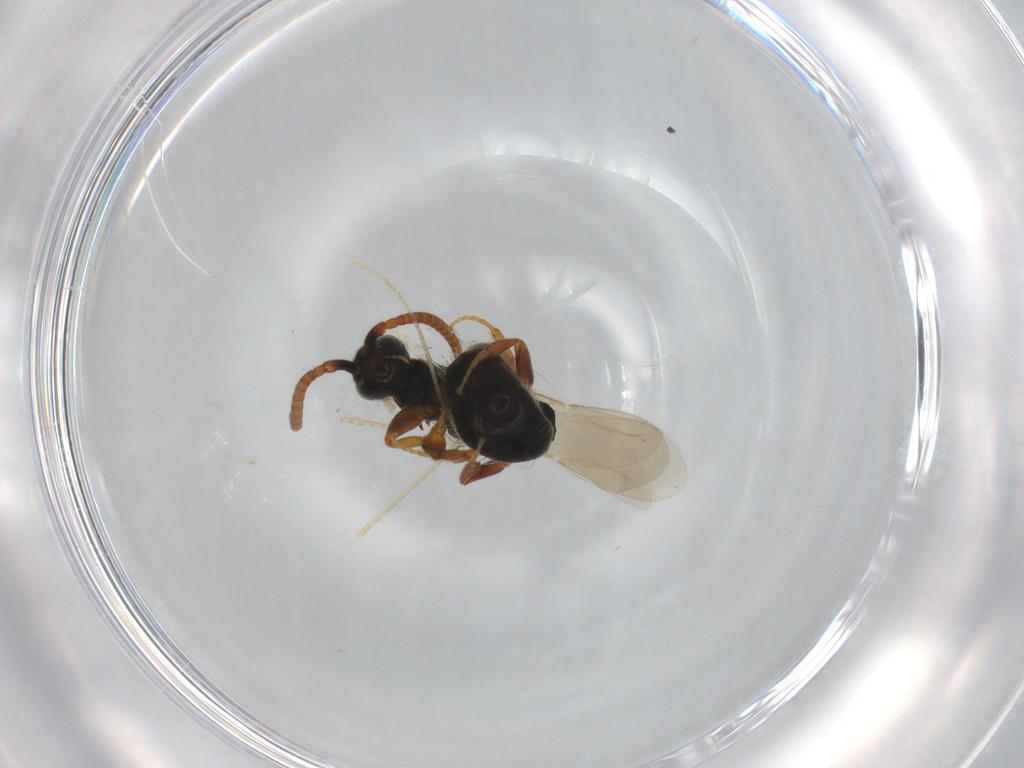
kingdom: Animalia
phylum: Arthropoda
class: Insecta
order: Hymenoptera
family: Bethylidae
